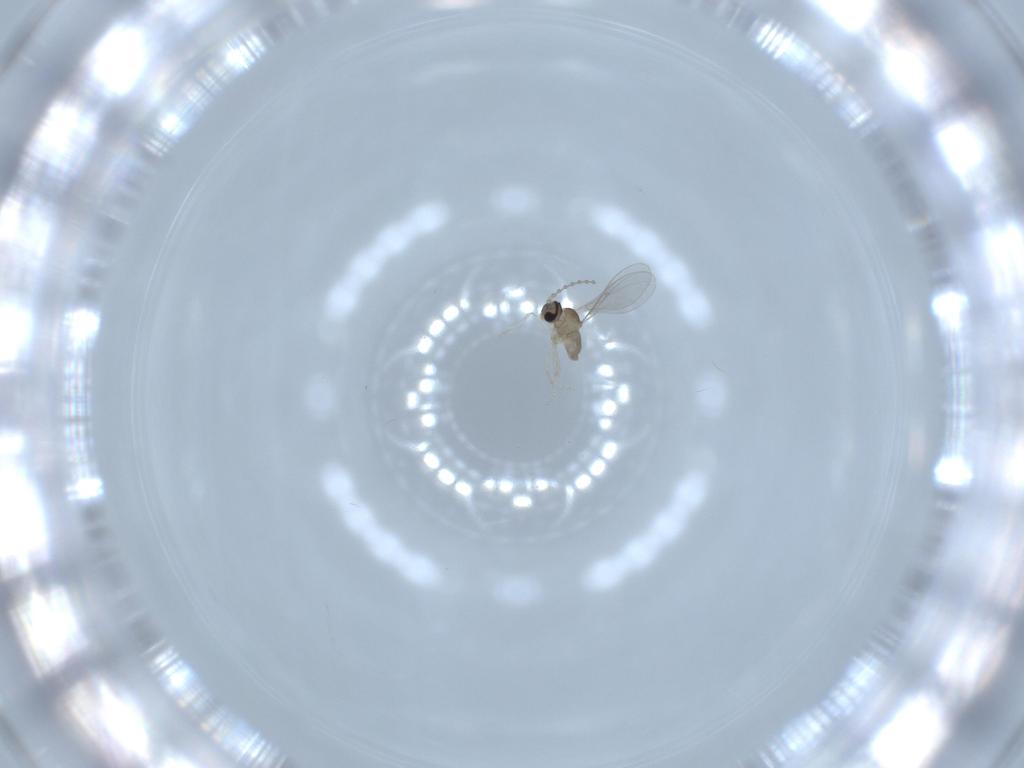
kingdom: Animalia
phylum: Arthropoda
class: Insecta
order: Diptera
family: Cecidomyiidae
